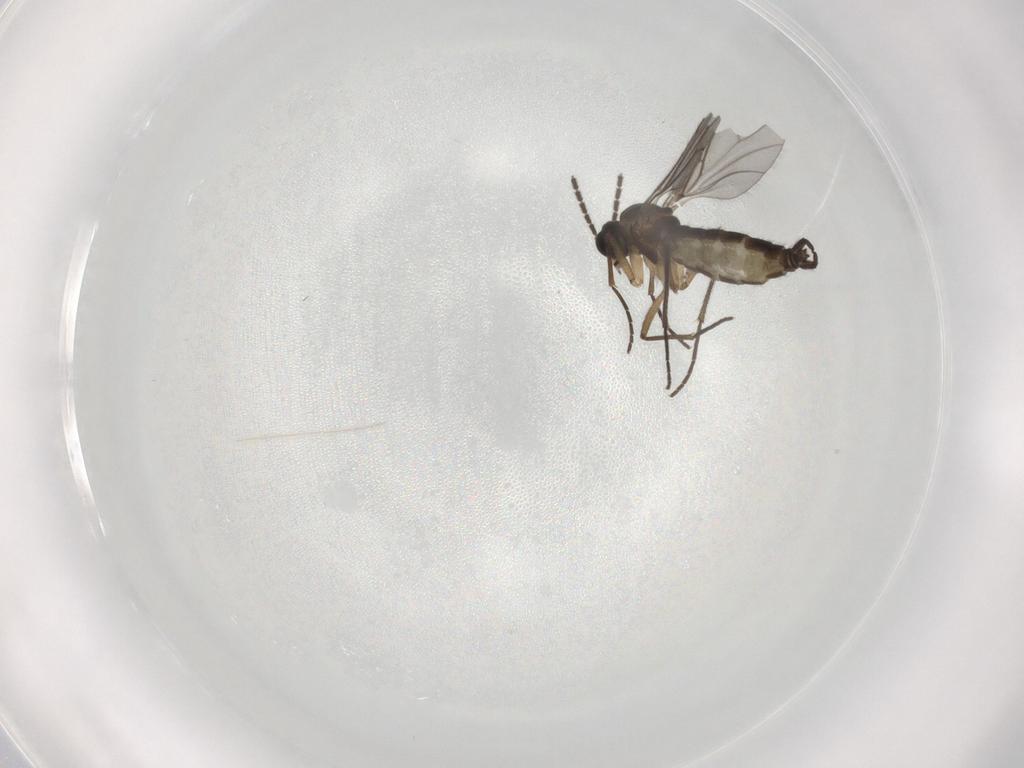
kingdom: Animalia
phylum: Arthropoda
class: Insecta
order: Diptera
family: Sciaridae
